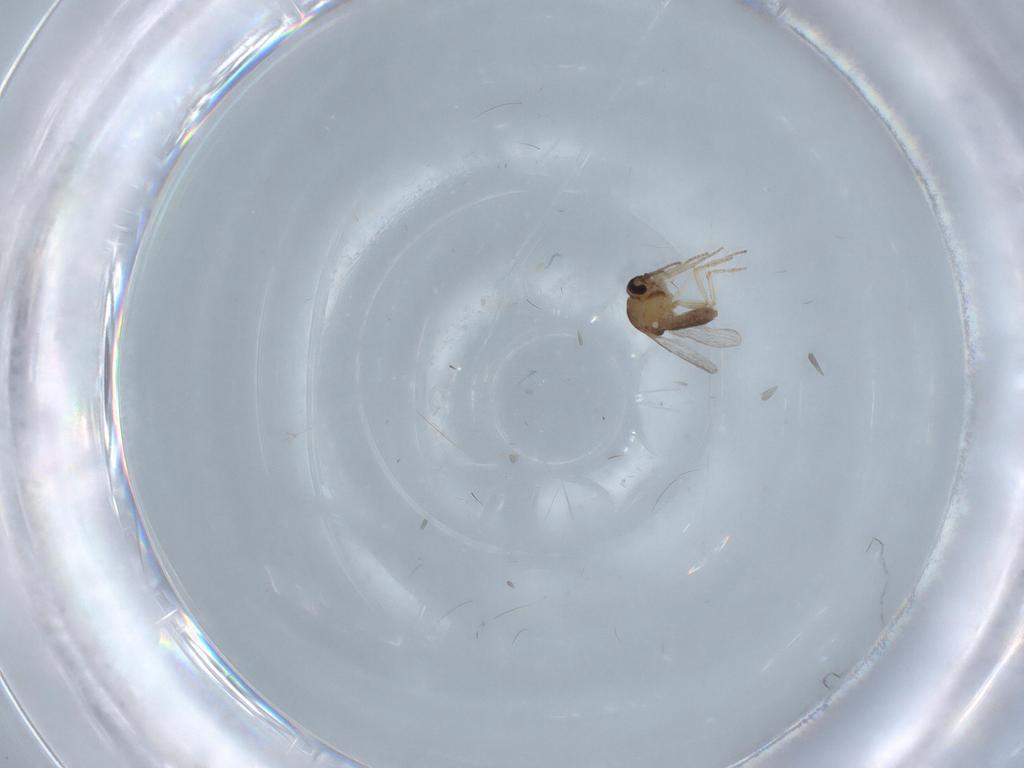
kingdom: Animalia
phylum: Arthropoda
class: Insecta
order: Diptera
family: Ceratopogonidae
